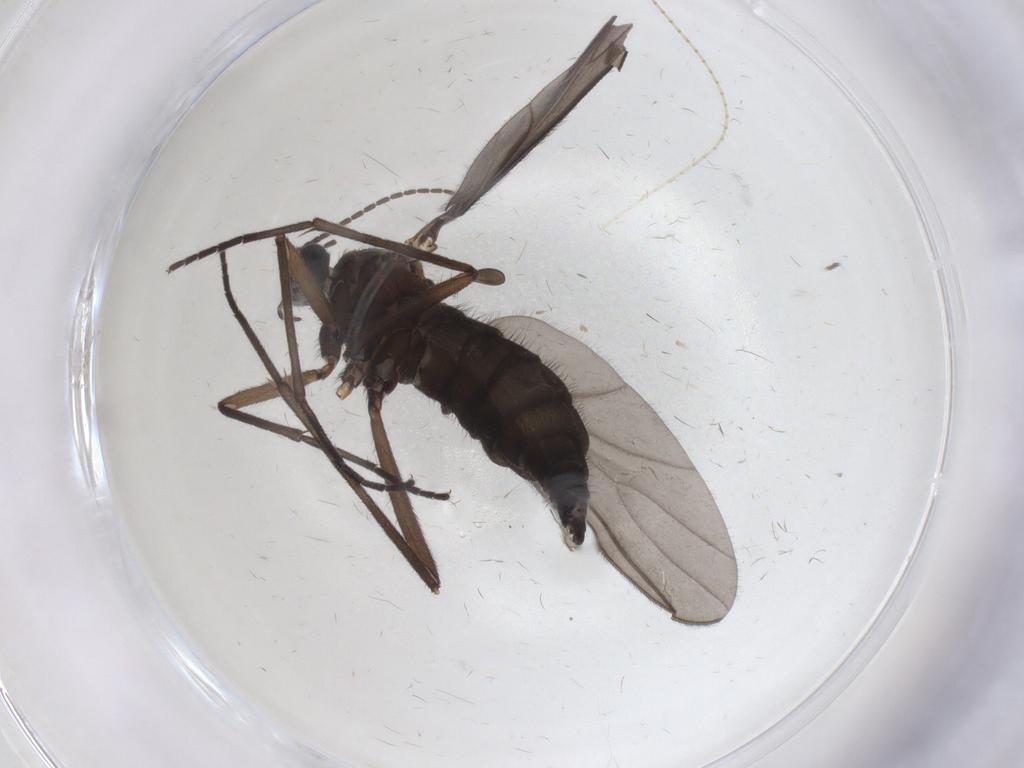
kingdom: Animalia
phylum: Arthropoda
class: Insecta
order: Diptera
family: Sciaridae
